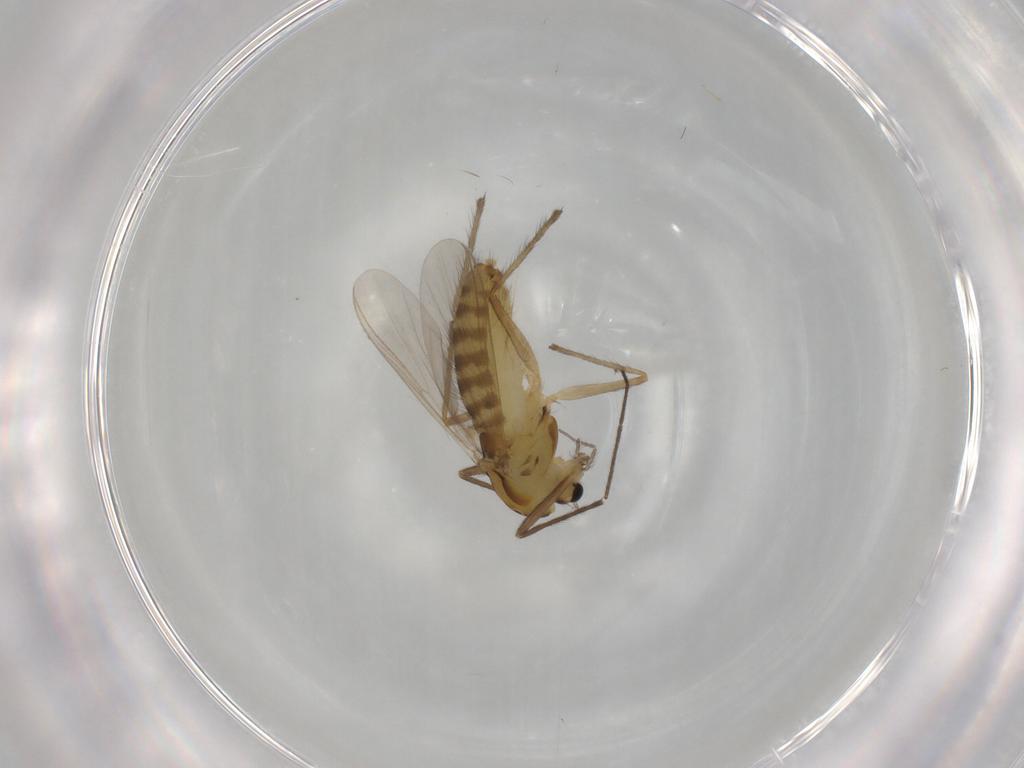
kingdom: Animalia
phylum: Arthropoda
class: Insecta
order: Diptera
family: Chironomidae
